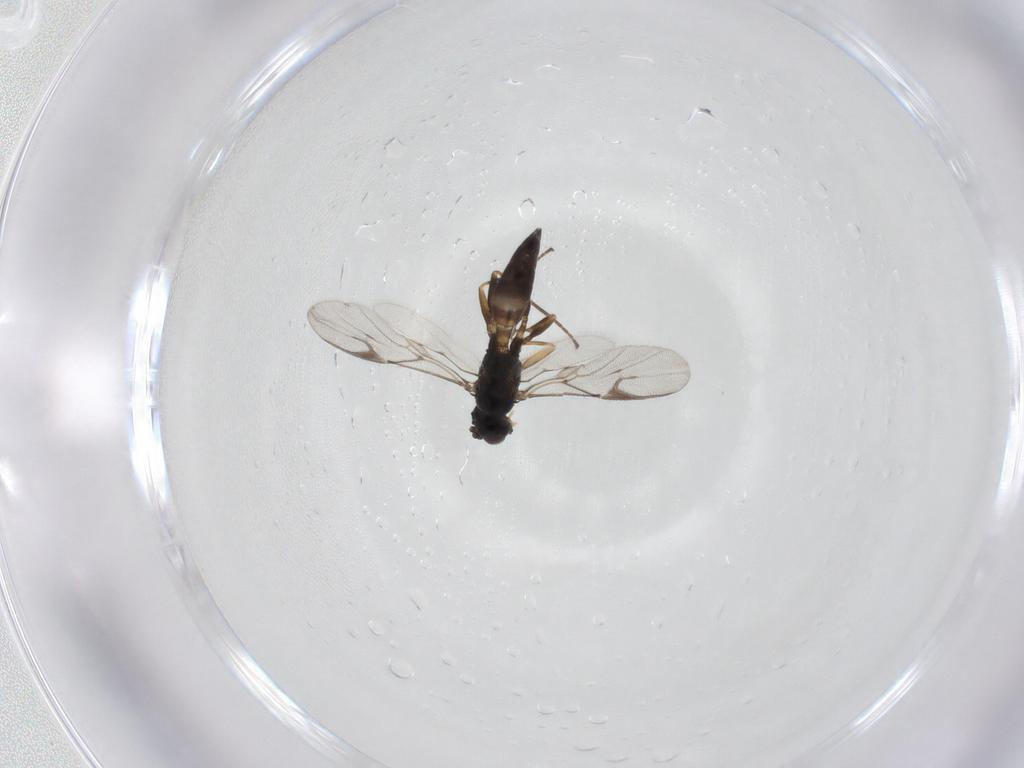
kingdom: Animalia
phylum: Arthropoda
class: Insecta
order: Hymenoptera
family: Braconidae
